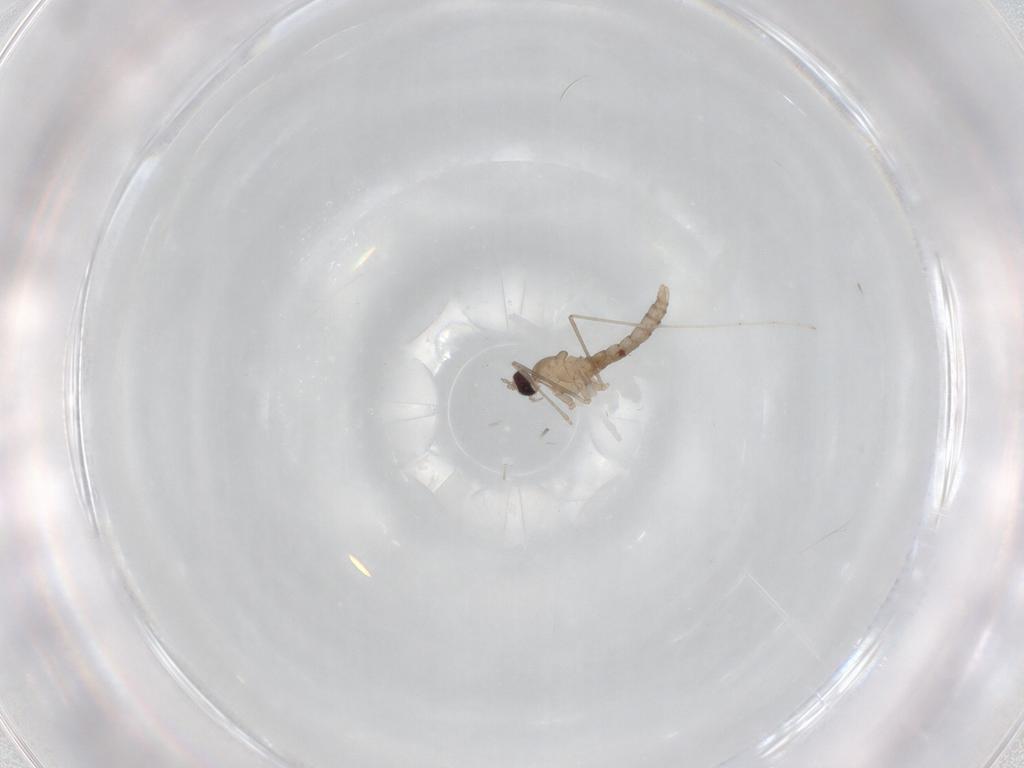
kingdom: Animalia
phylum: Arthropoda
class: Insecta
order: Diptera
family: Cecidomyiidae
